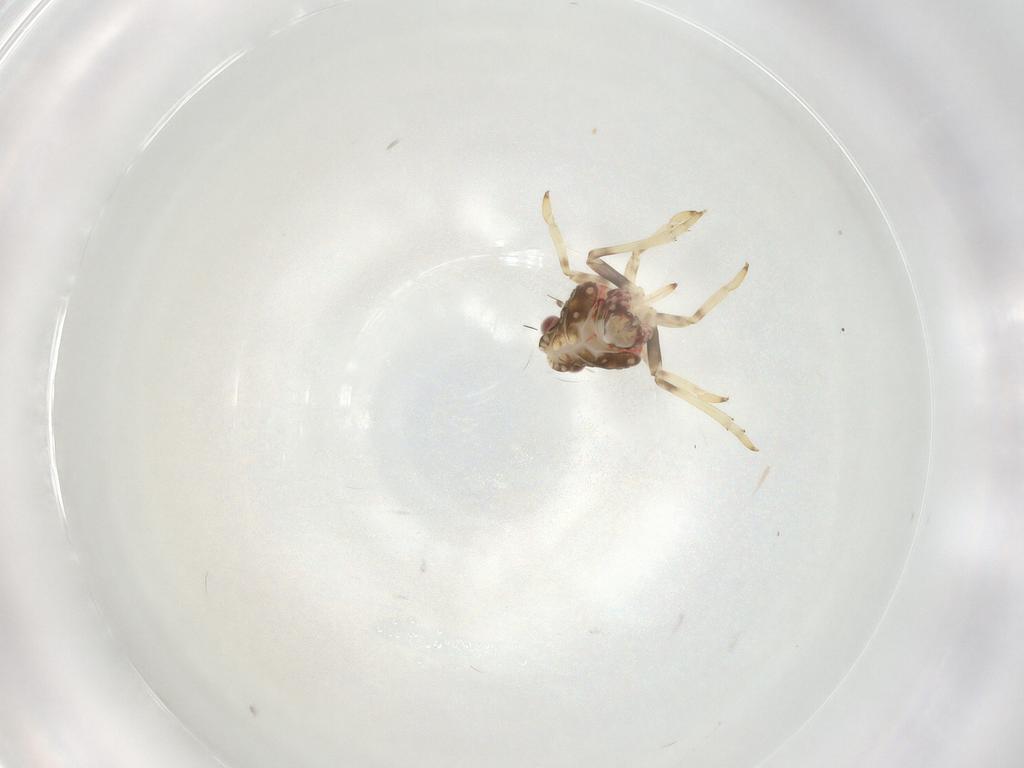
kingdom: Animalia
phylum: Arthropoda
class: Insecta
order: Hemiptera
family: Tropiduchidae
